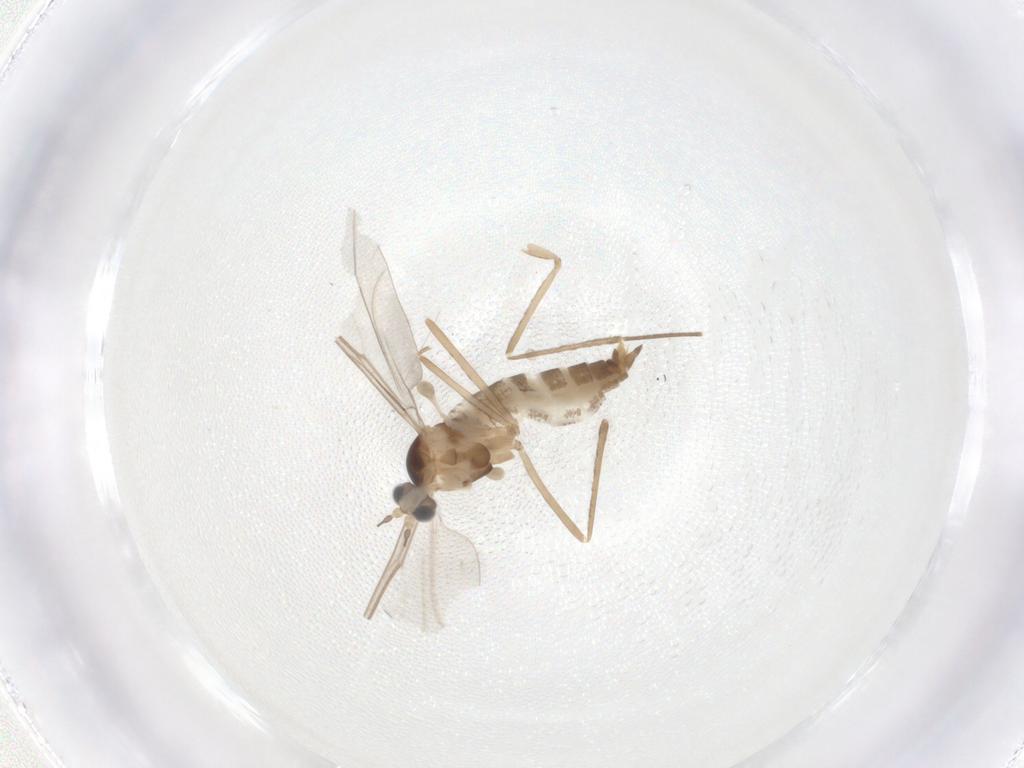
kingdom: Animalia
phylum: Arthropoda
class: Insecta
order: Diptera
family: Cecidomyiidae
